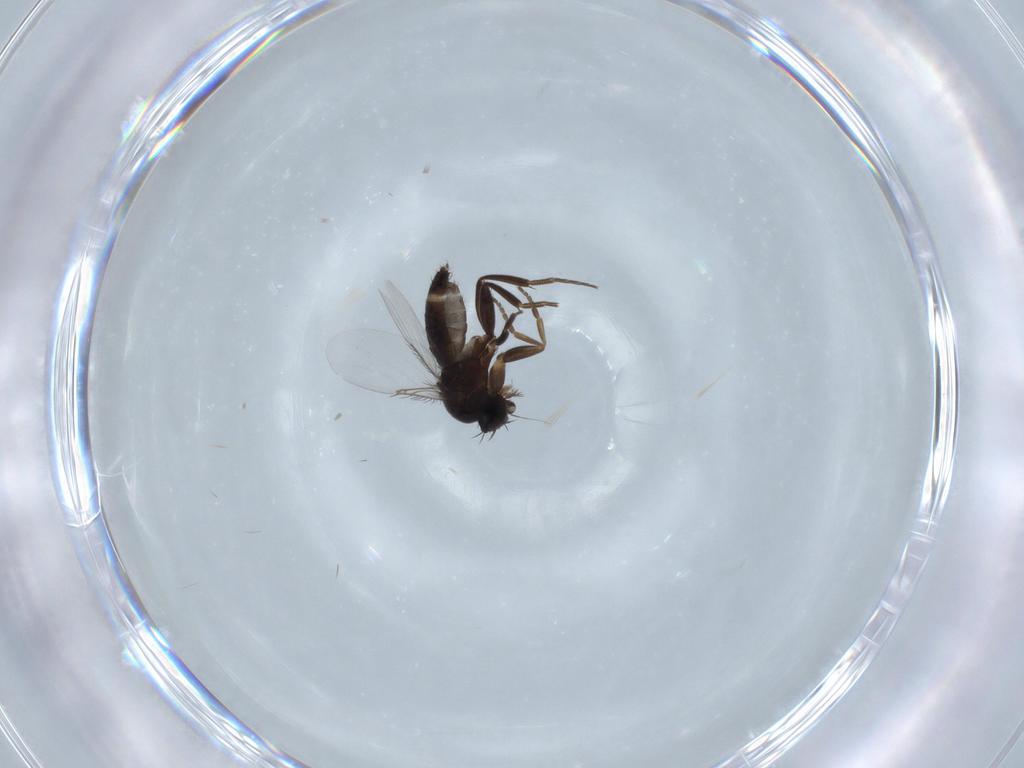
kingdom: Animalia
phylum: Arthropoda
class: Insecta
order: Diptera
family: Phoridae
